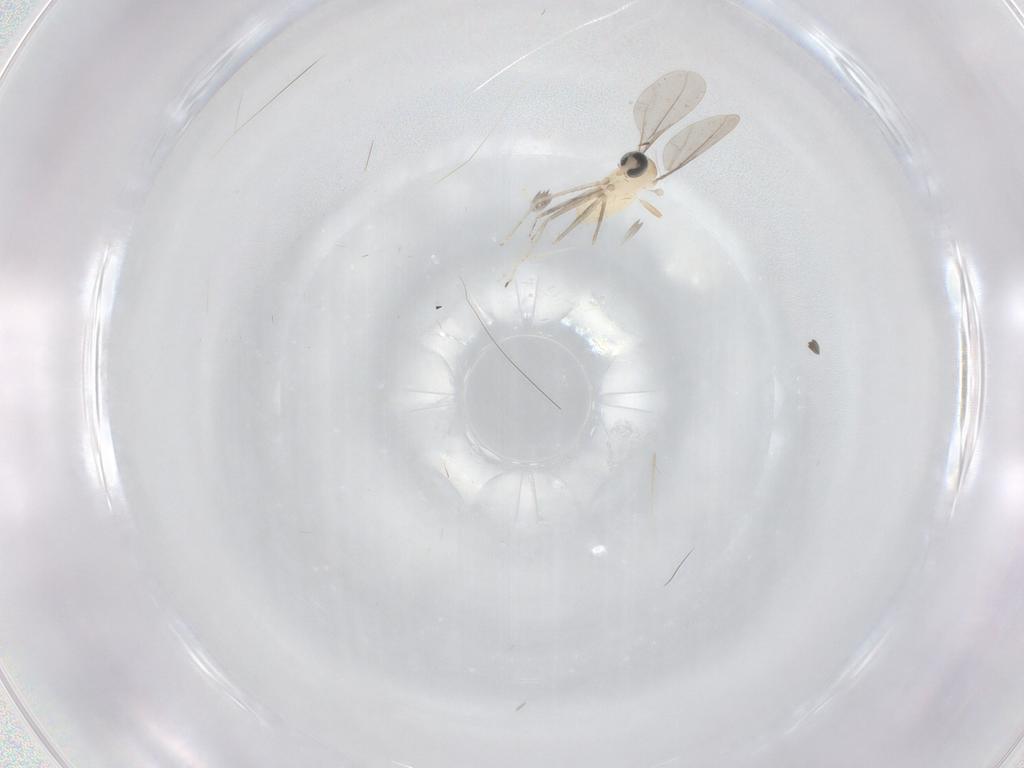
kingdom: Animalia
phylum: Arthropoda
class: Insecta
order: Diptera
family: Cecidomyiidae
